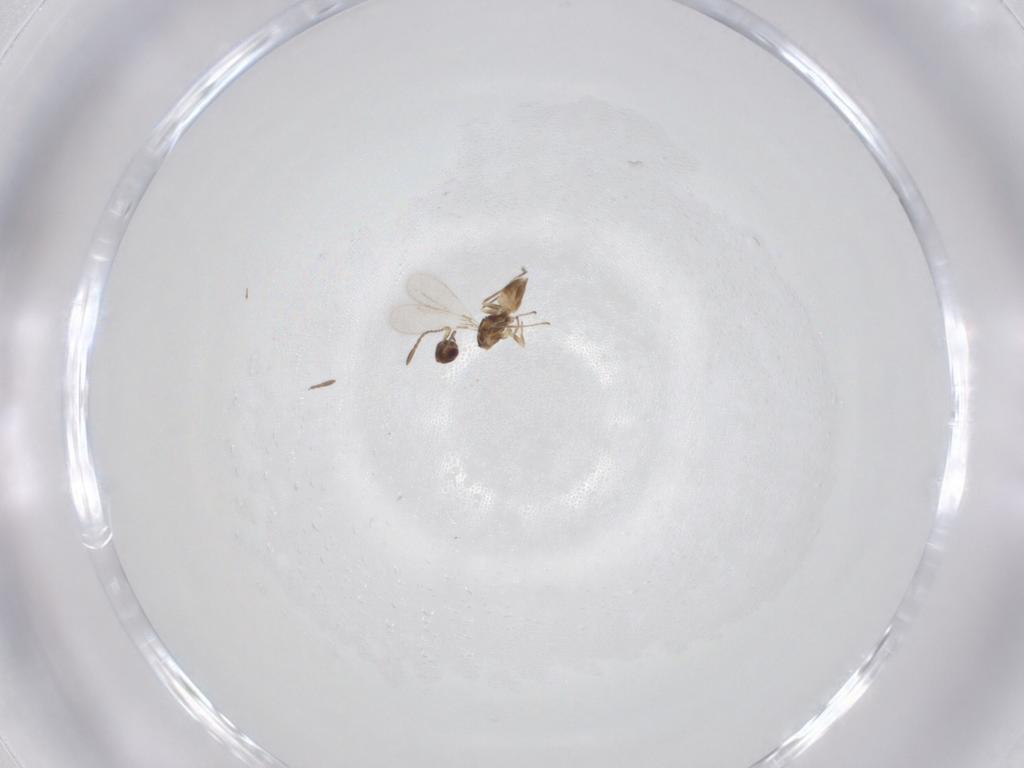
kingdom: Animalia
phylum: Arthropoda
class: Insecta
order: Hymenoptera
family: Mymaridae
